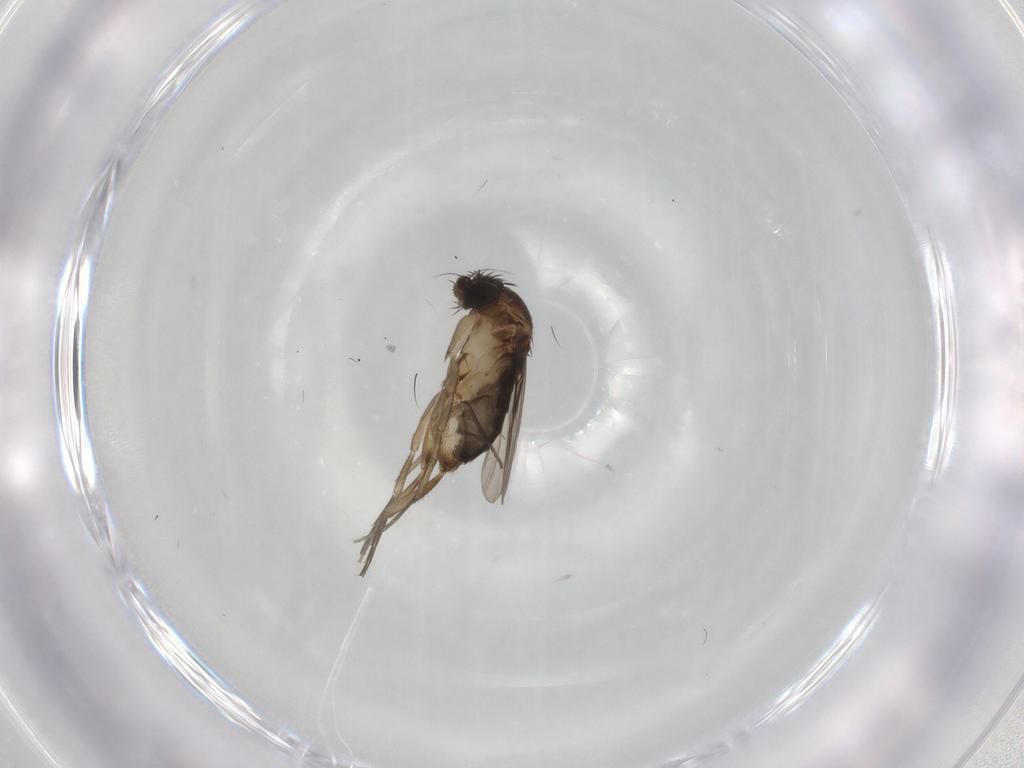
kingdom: Animalia
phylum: Arthropoda
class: Insecta
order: Diptera
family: Phoridae
